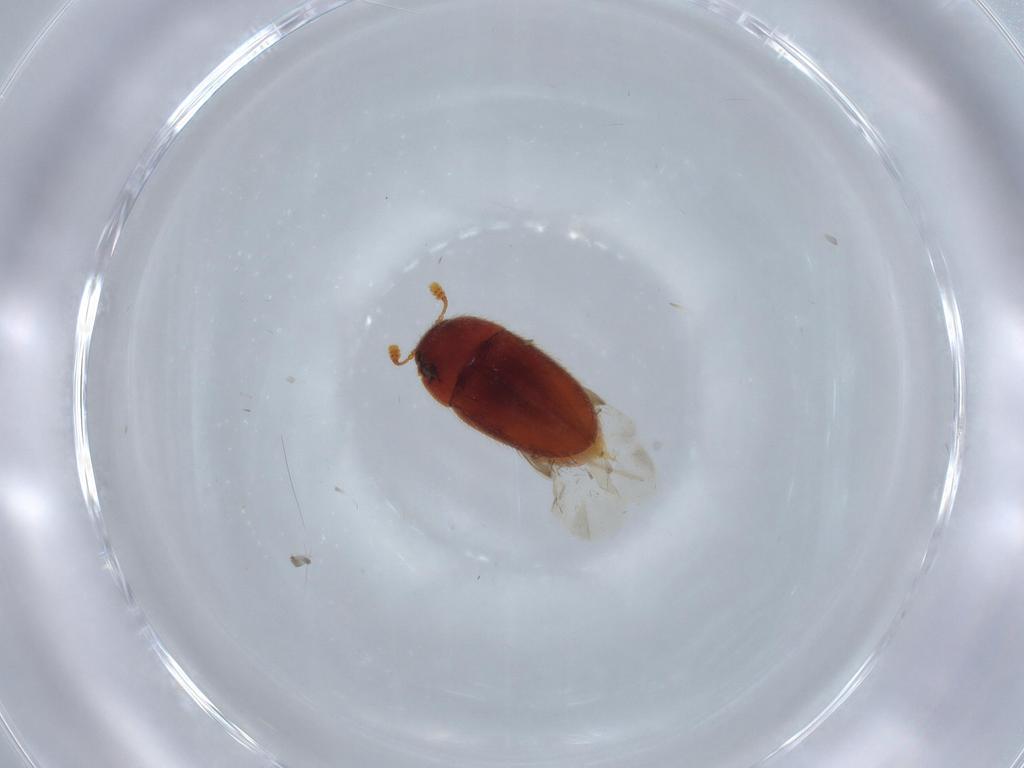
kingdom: Animalia
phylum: Arthropoda
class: Insecta
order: Coleoptera
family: Biphyllidae
